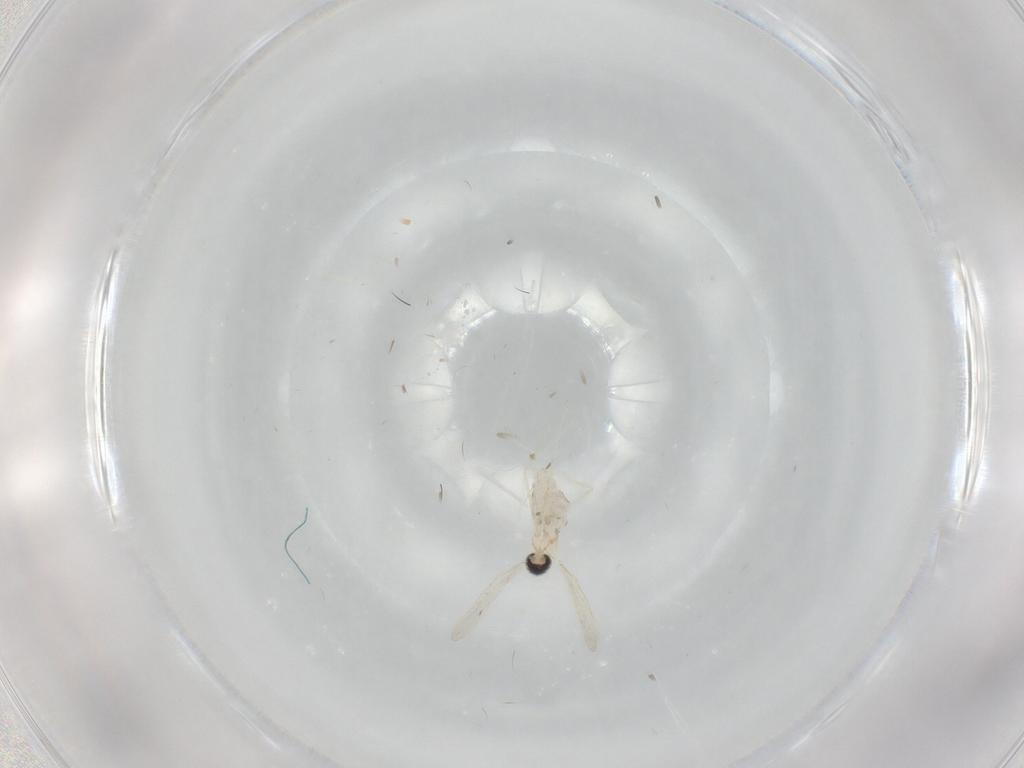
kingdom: Animalia
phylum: Arthropoda
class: Insecta
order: Diptera
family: Cecidomyiidae
